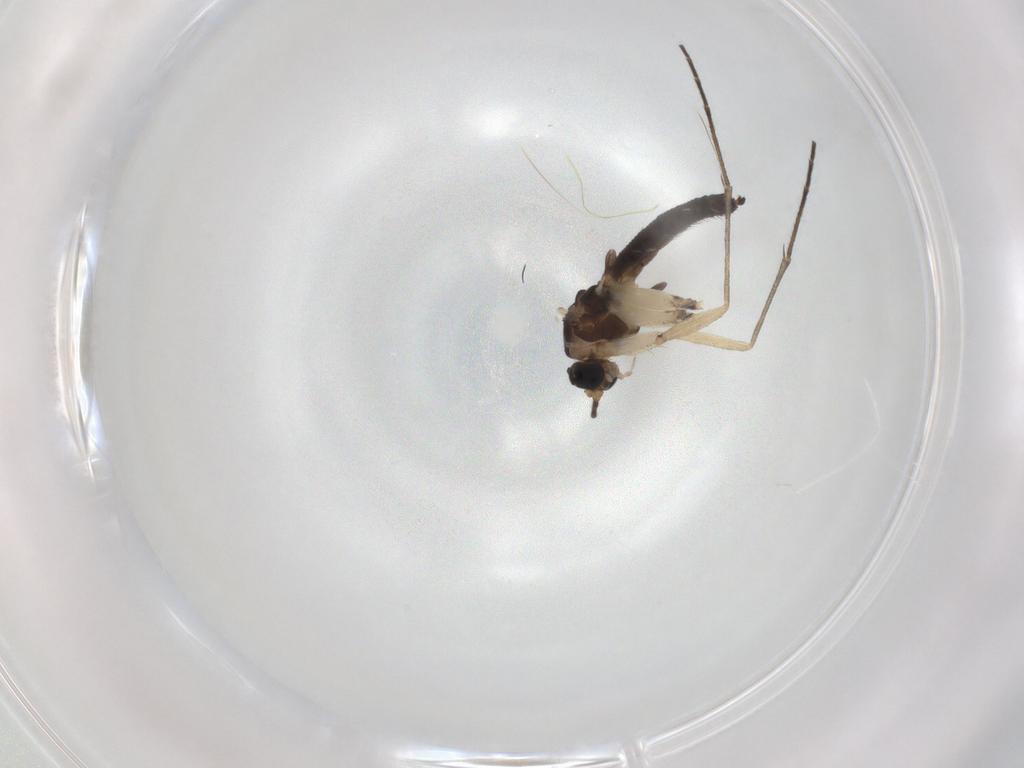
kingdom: Animalia
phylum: Arthropoda
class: Insecta
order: Diptera
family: Sciaridae
